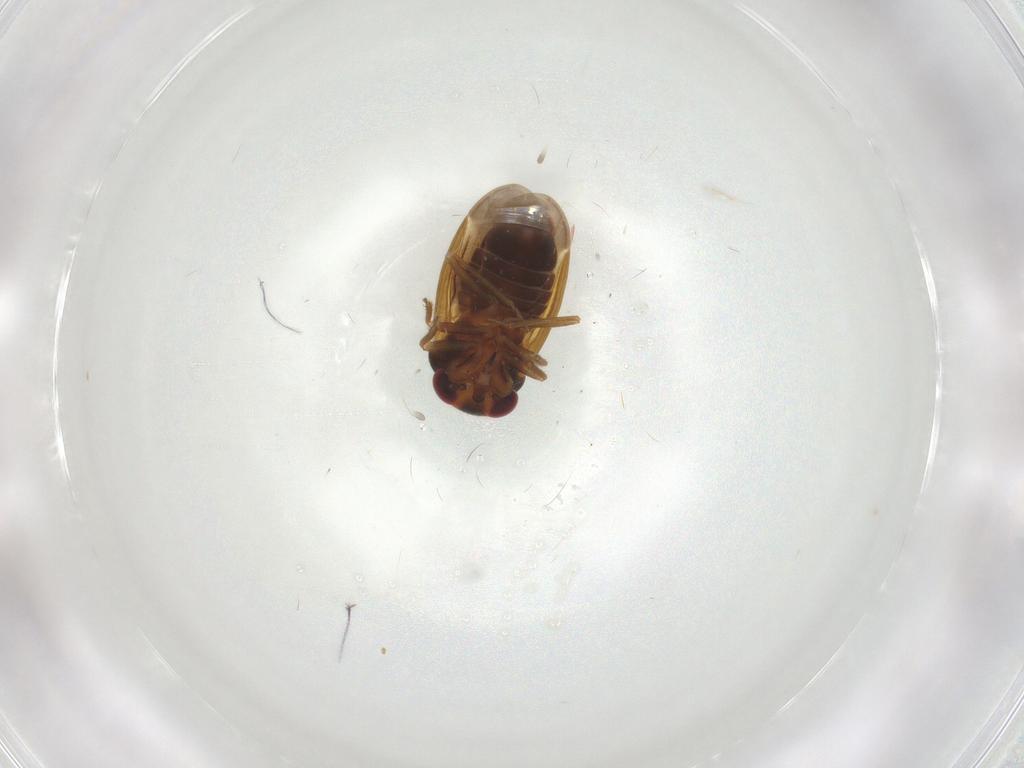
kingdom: Animalia
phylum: Arthropoda
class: Insecta
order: Hemiptera
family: Schizopteridae
